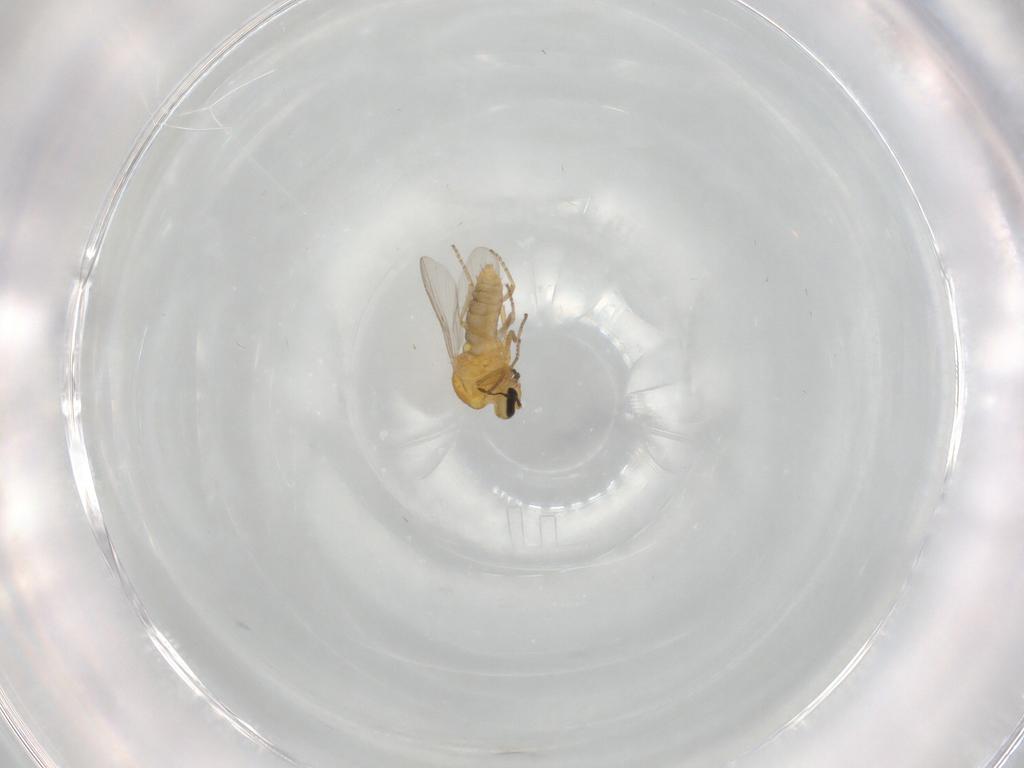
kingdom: Animalia
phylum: Arthropoda
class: Insecta
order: Diptera
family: Ceratopogonidae
